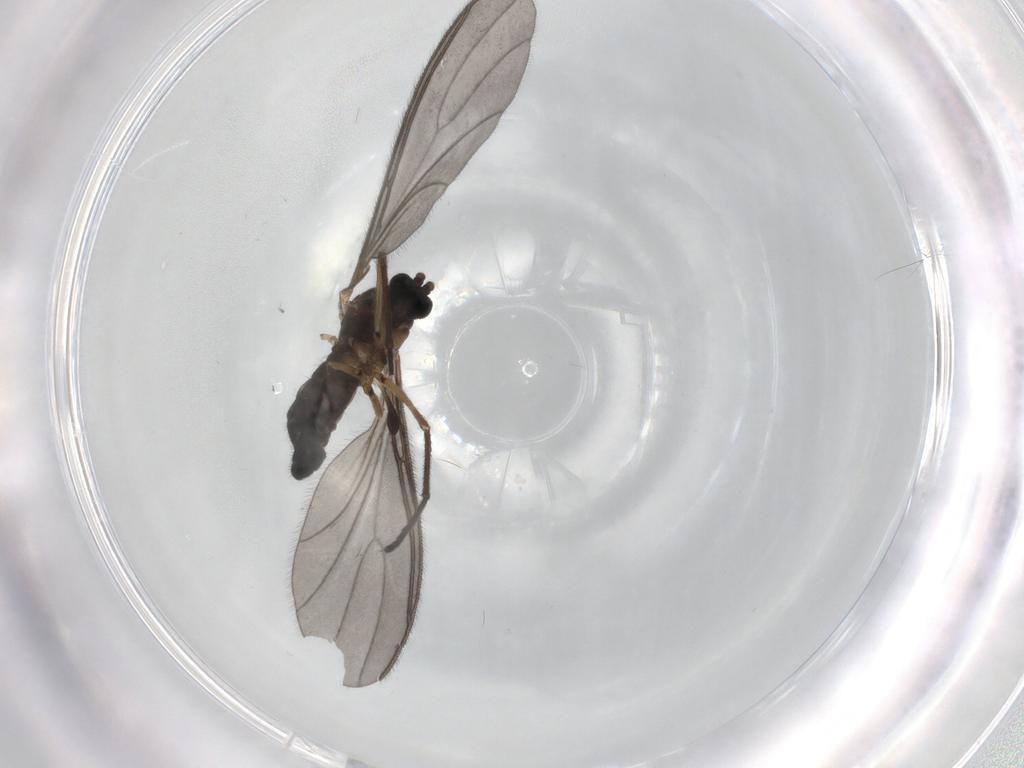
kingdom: Animalia
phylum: Arthropoda
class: Insecta
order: Diptera
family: Sciaridae
